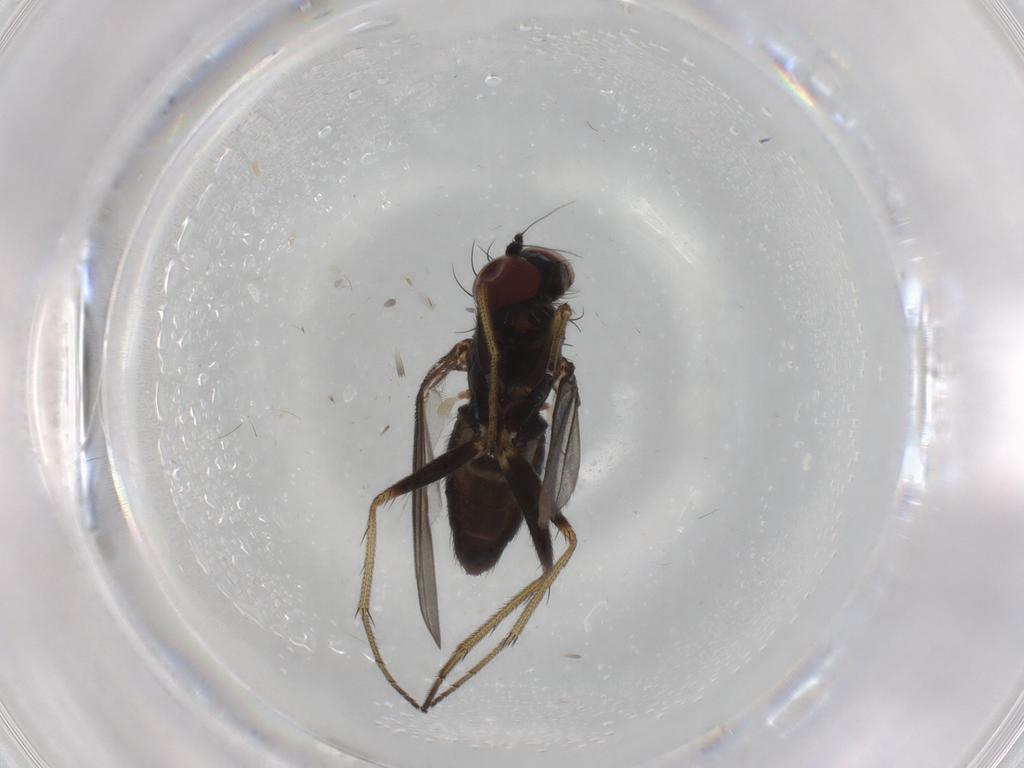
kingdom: Animalia
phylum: Arthropoda
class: Insecta
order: Diptera
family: Dolichopodidae
